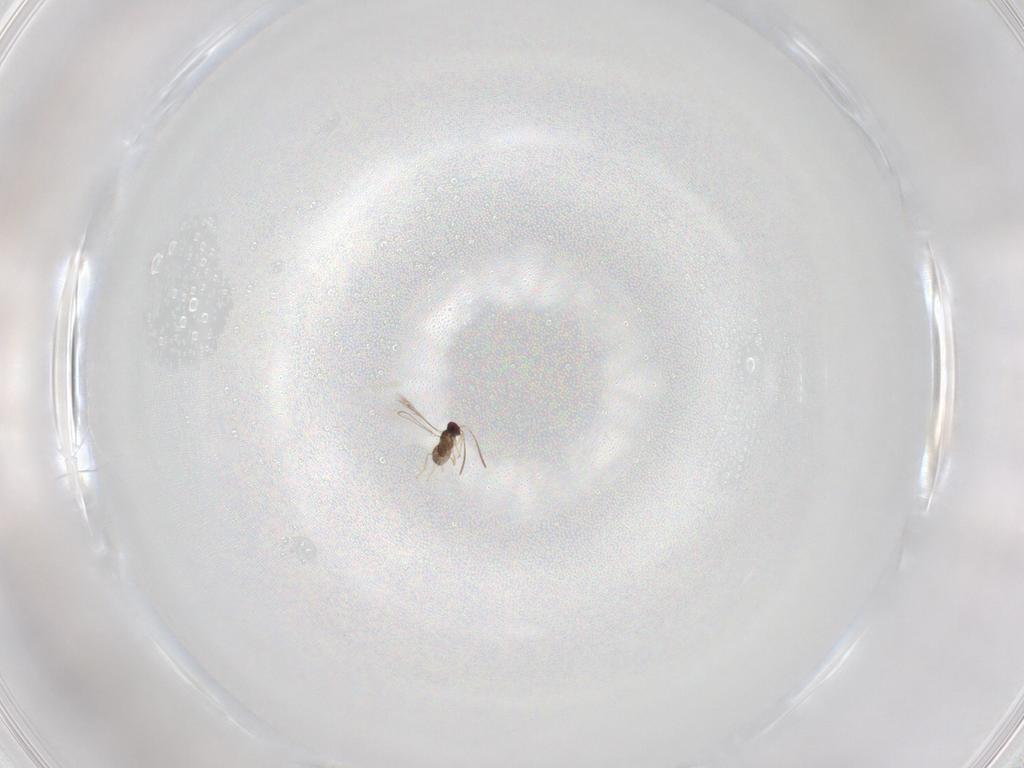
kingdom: Animalia
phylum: Arthropoda
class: Insecta
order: Hymenoptera
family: Mymaridae
